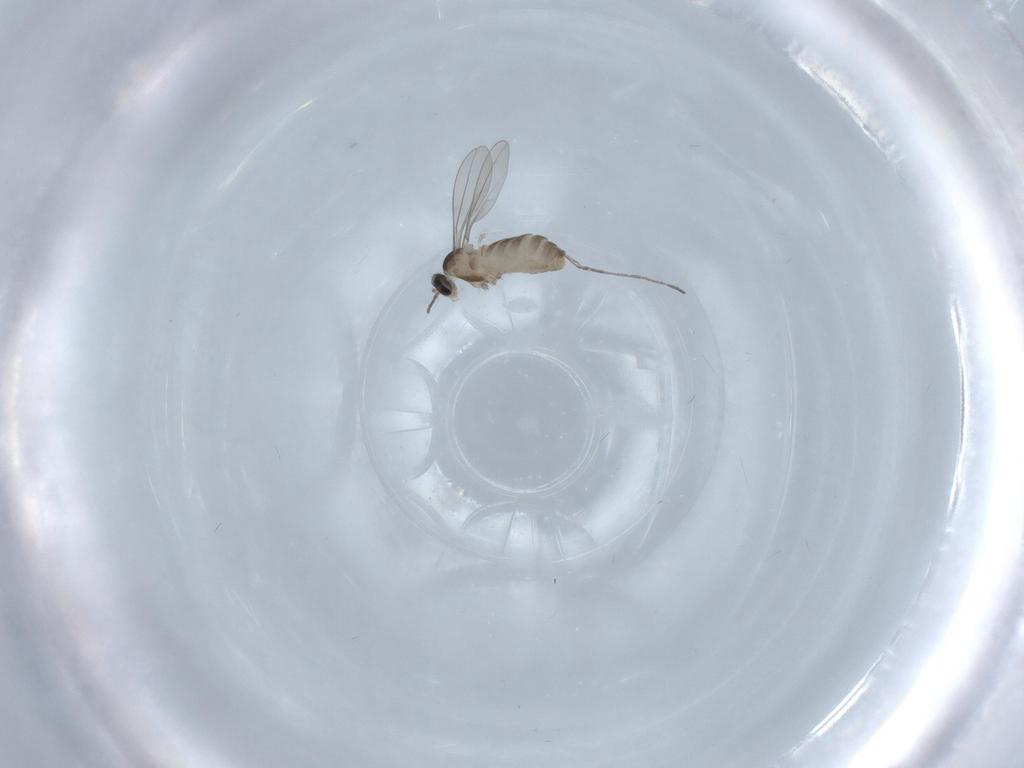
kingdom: Animalia
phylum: Arthropoda
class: Insecta
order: Diptera
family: Cecidomyiidae
